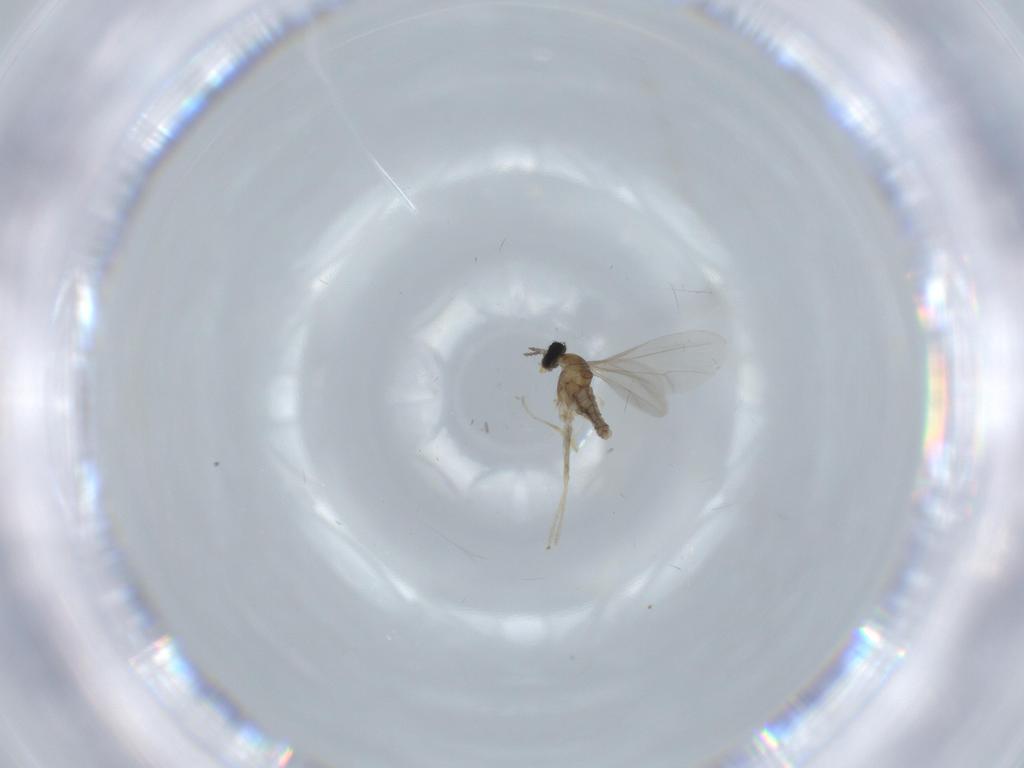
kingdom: Animalia
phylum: Arthropoda
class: Insecta
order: Diptera
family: Cecidomyiidae
